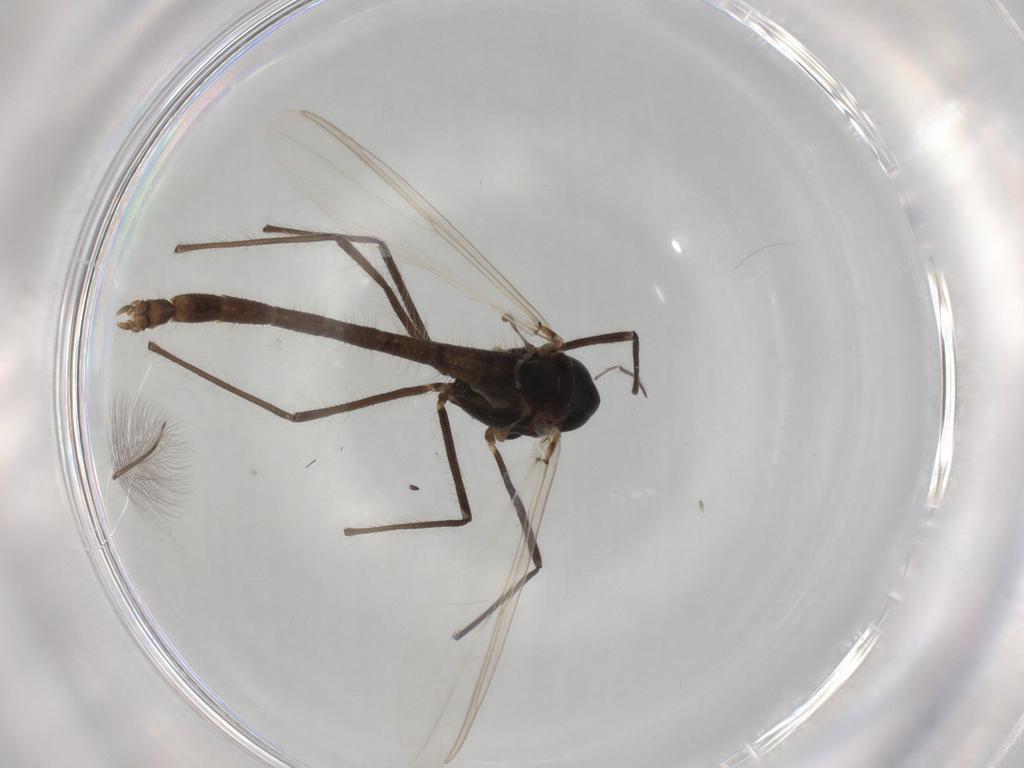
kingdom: Animalia
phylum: Arthropoda
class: Insecta
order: Diptera
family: Chironomidae
